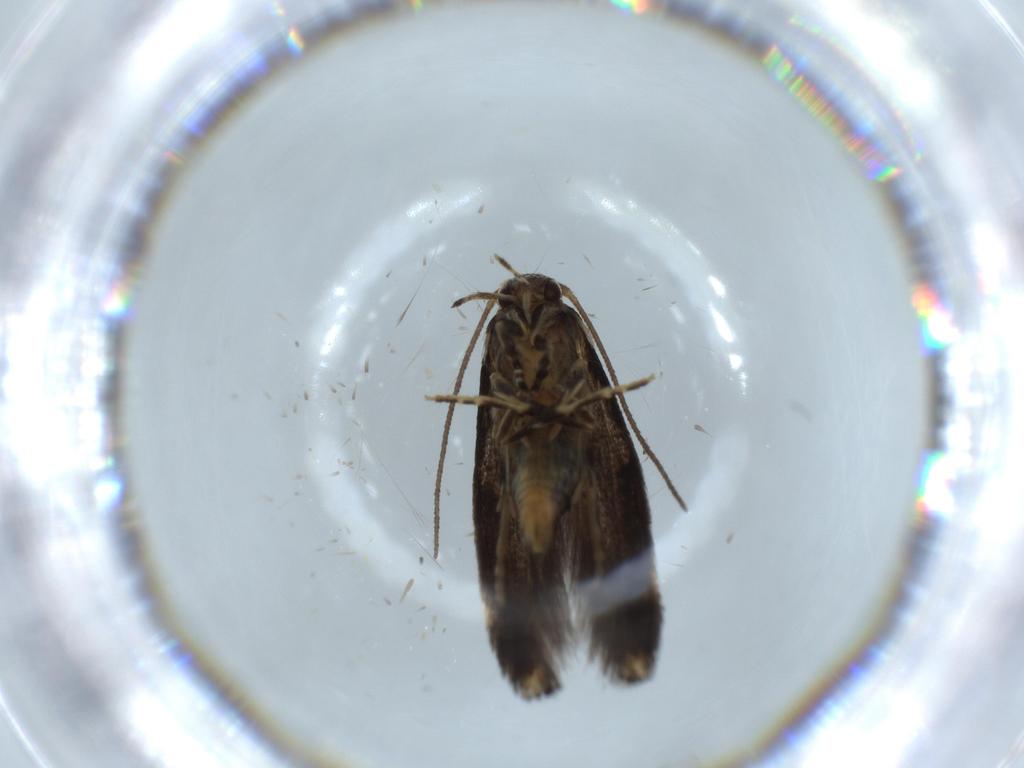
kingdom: Animalia
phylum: Arthropoda
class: Insecta
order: Lepidoptera
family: Elachistidae
